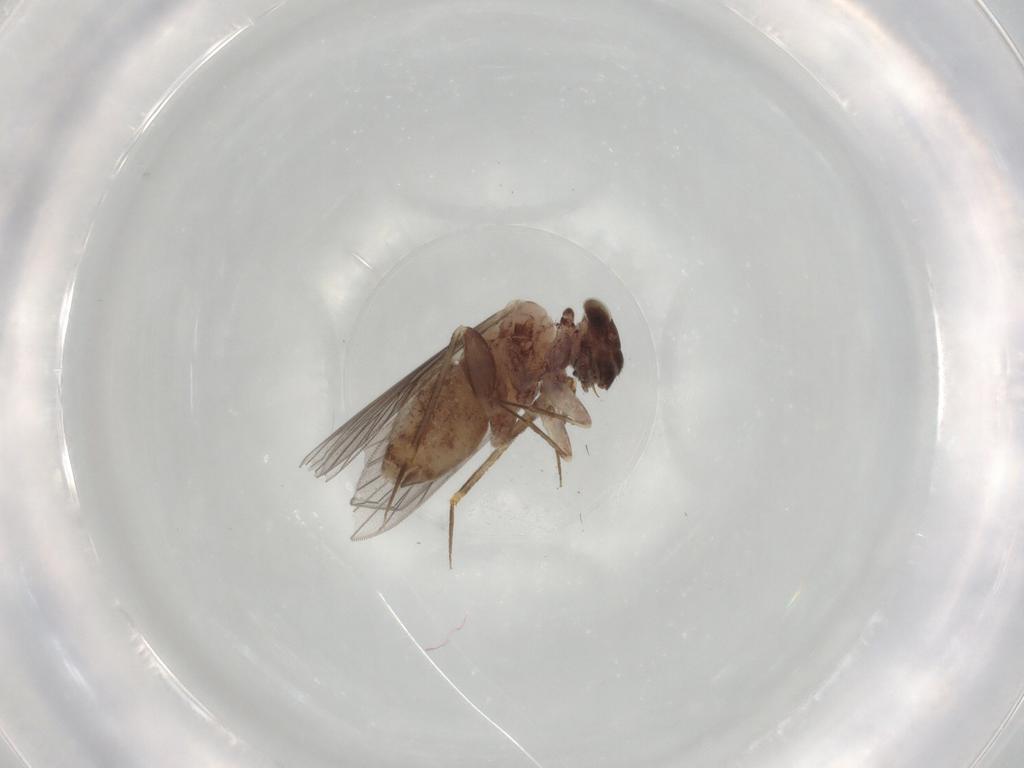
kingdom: Animalia
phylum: Arthropoda
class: Insecta
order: Psocodea
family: Lepidopsocidae
